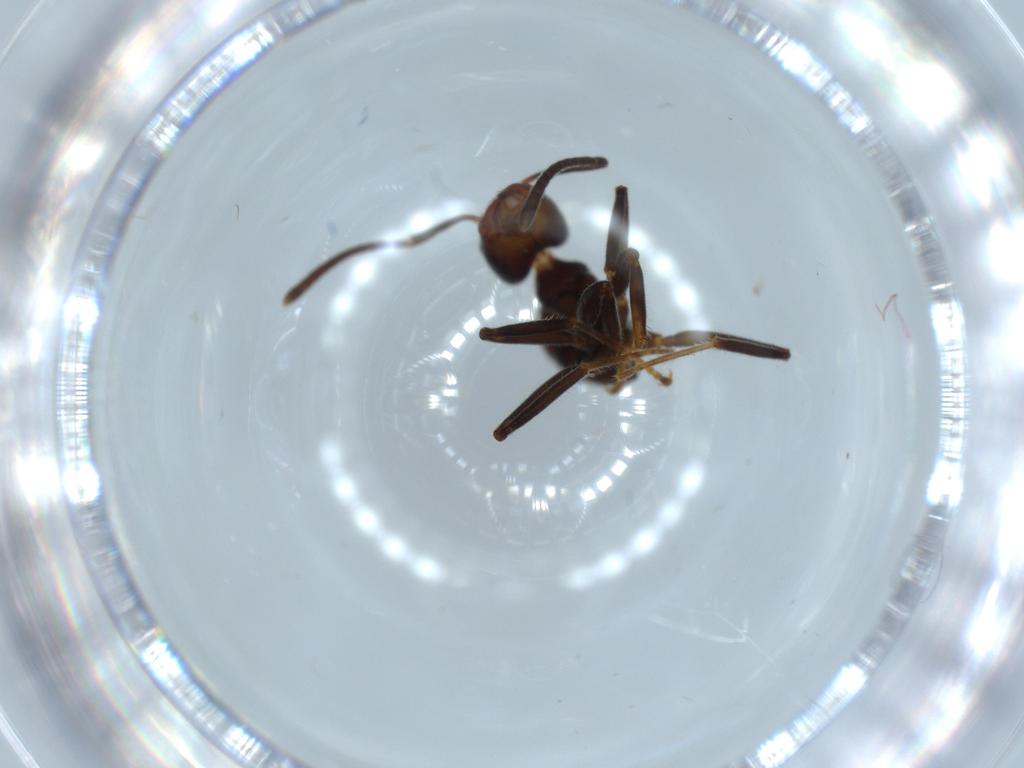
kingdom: Animalia
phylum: Arthropoda
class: Insecta
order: Hymenoptera
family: Formicidae
